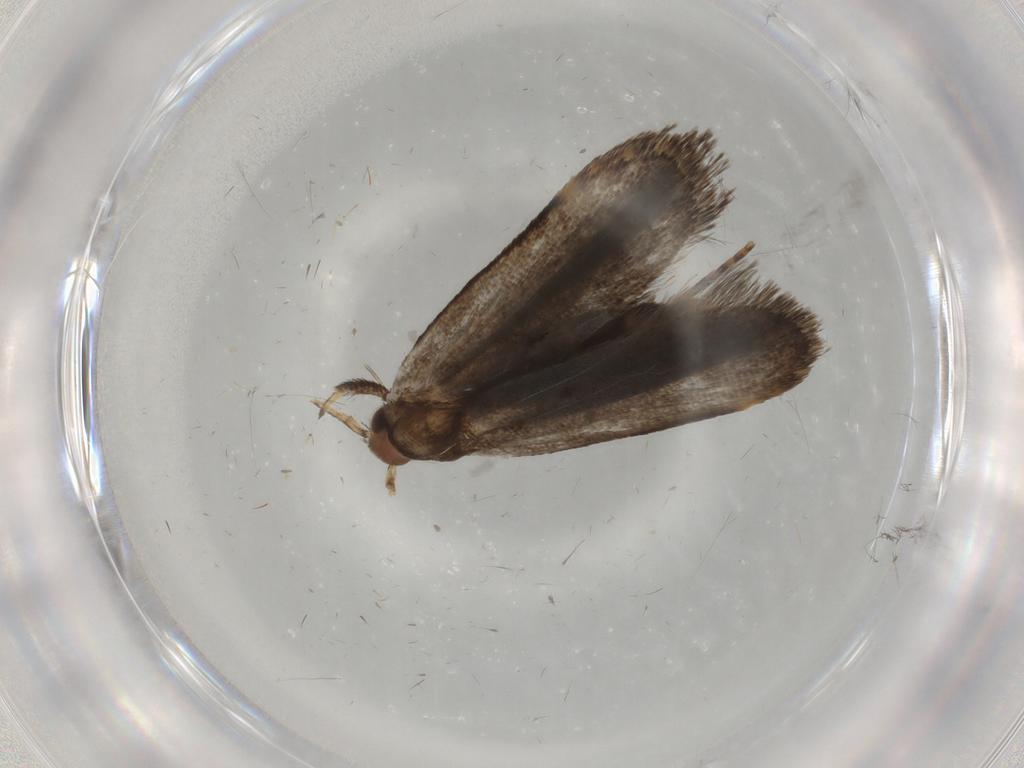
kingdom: Animalia
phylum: Arthropoda
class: Insecta
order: Lepidoptera
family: Gelechiidae
